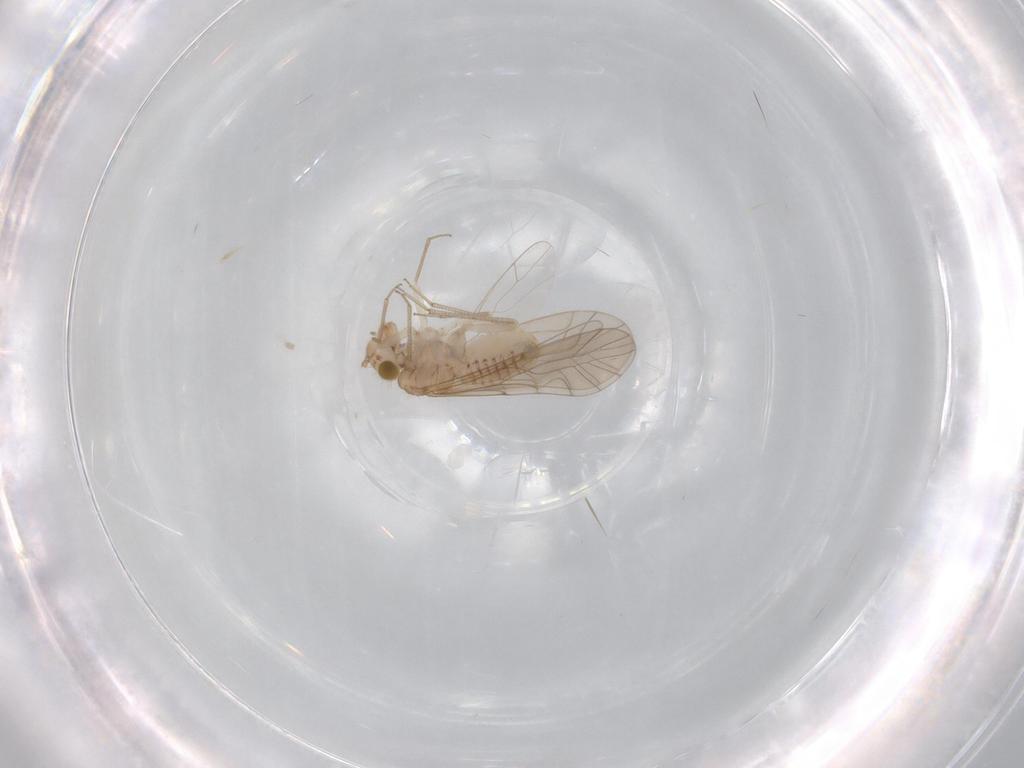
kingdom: Animalia
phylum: Arthropoda
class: Insecta
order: Psocodea
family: Lachesillidae
